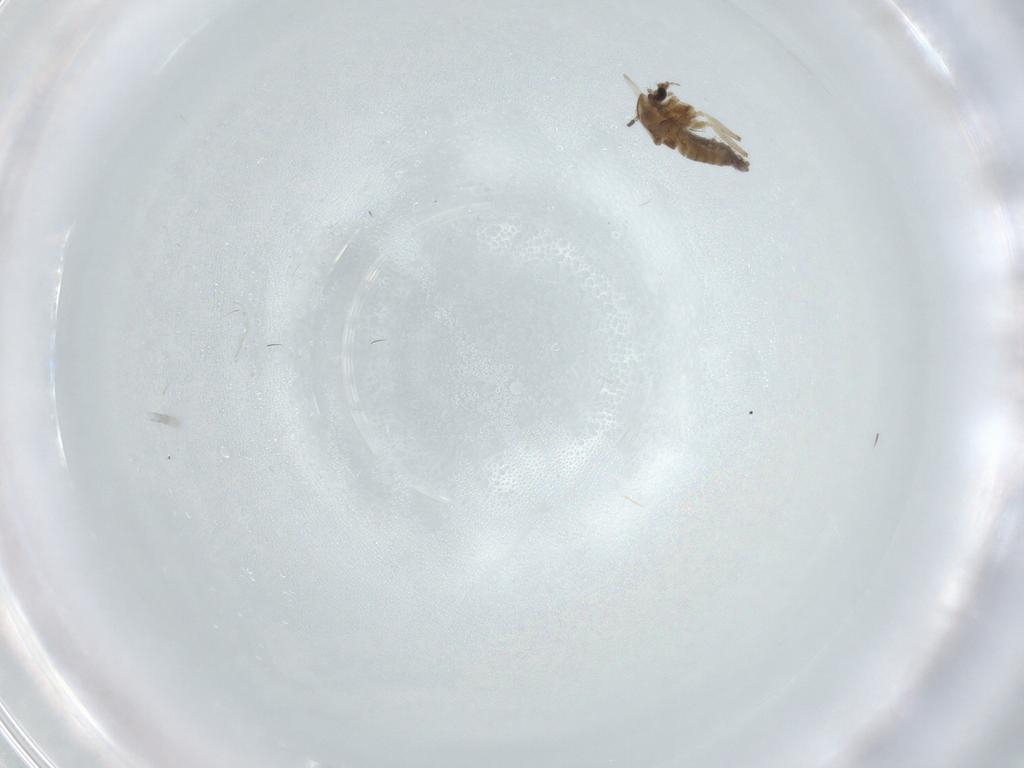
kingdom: Animalia
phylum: Arthropoda
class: Insecta
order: Diptera
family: Chironomidae
